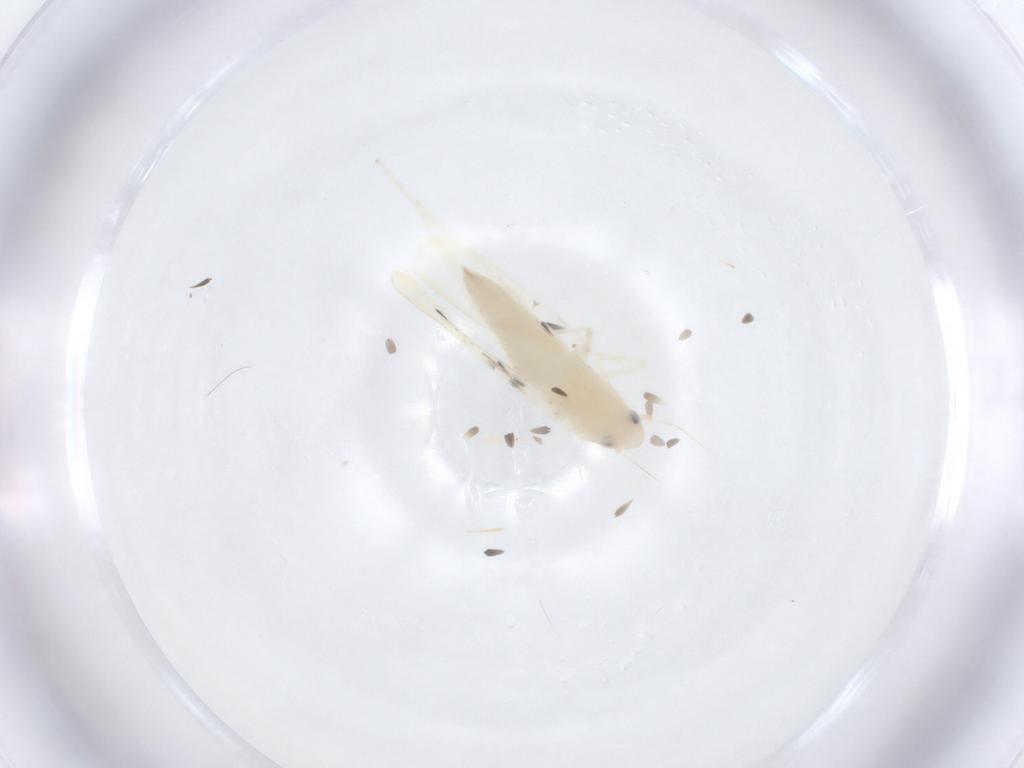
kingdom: Animalia
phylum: Arthropoda
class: Insecta
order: Hemiptera
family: Cicadellidae
